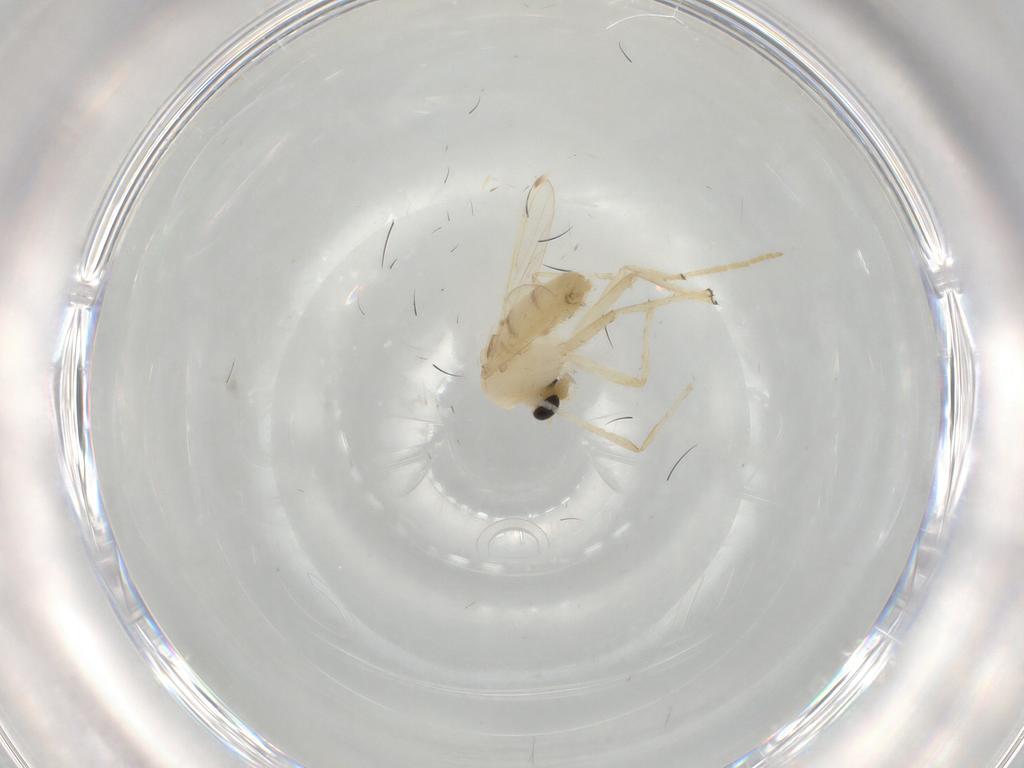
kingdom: Animalia
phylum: Arthropoda
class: Insecta
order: Diptera
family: Chironomidae
